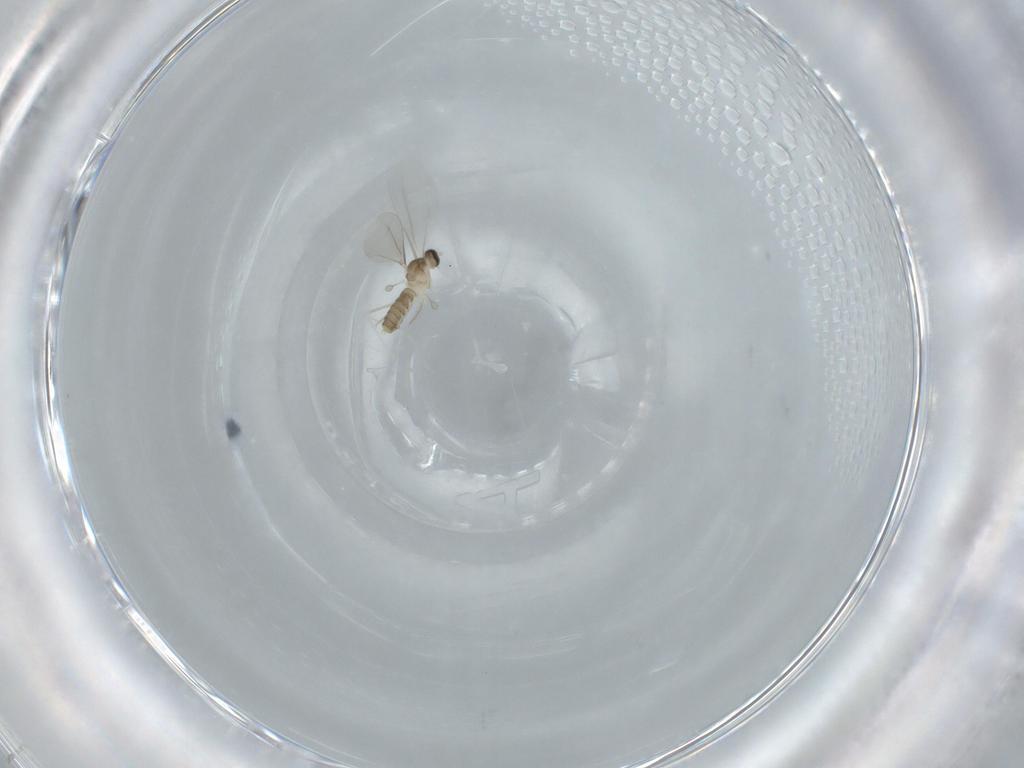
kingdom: Animalia
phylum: Arthropoda
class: Insecta
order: Diptera
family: Cecidomyiidae
